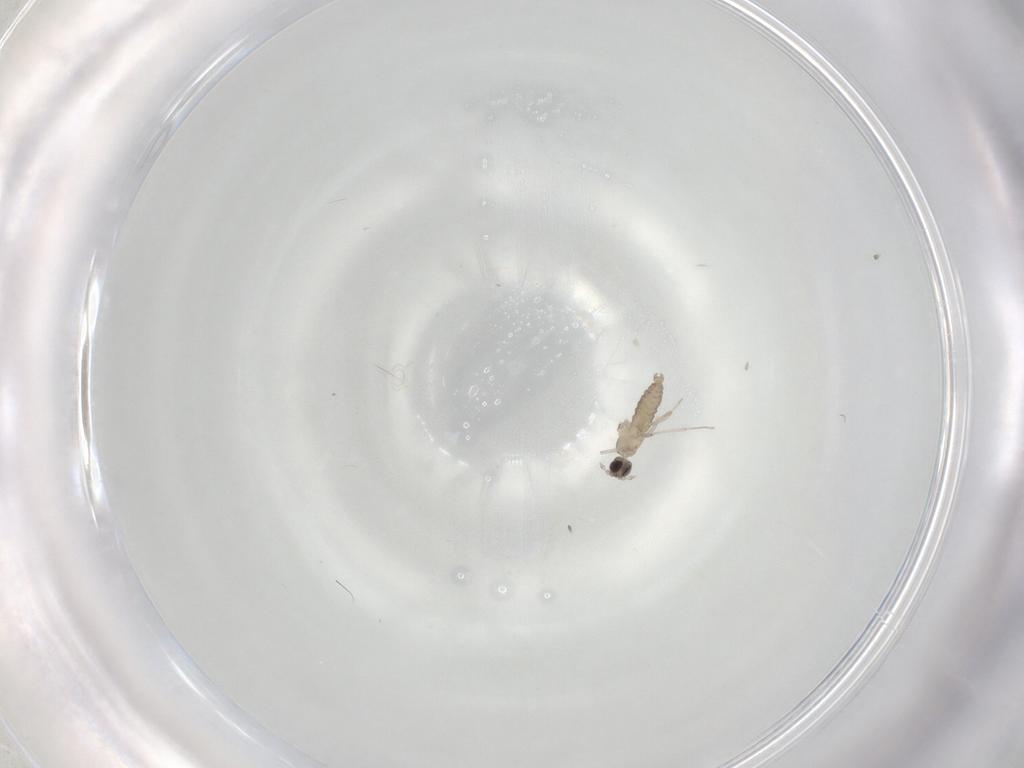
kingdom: Animalia
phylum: Arthropoda
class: Insecta
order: Diptera
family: Cecidomyiidae
